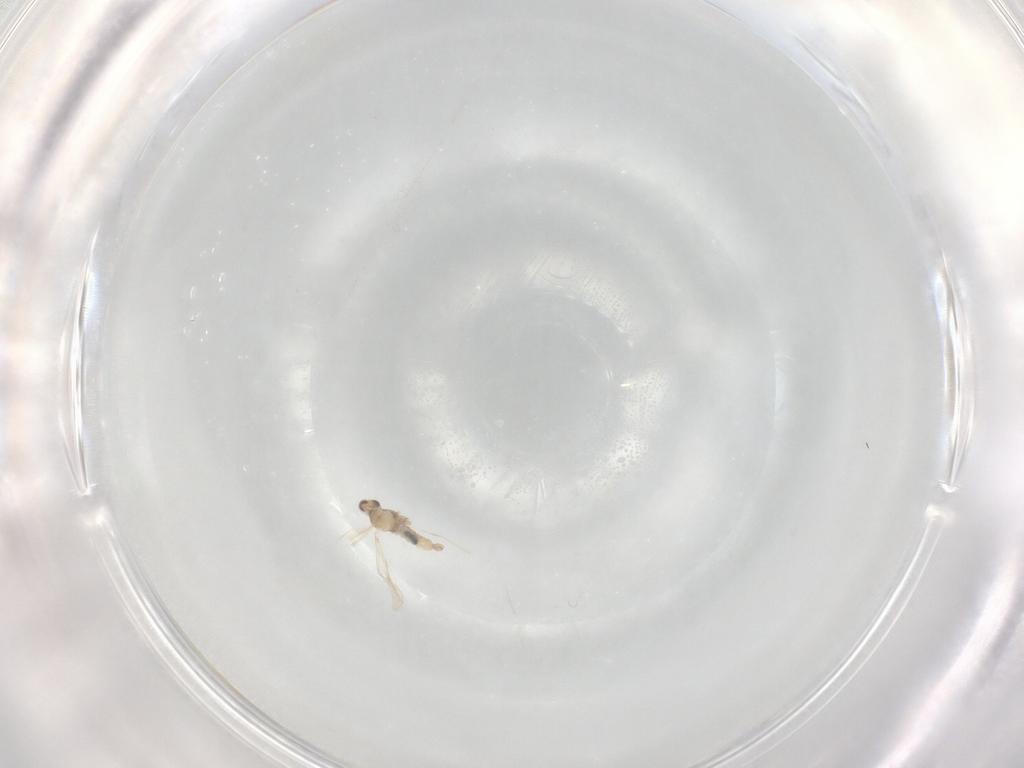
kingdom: Animalia
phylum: Arthropoda
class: Insecta
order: Diptera
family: Cecidomyiidae
